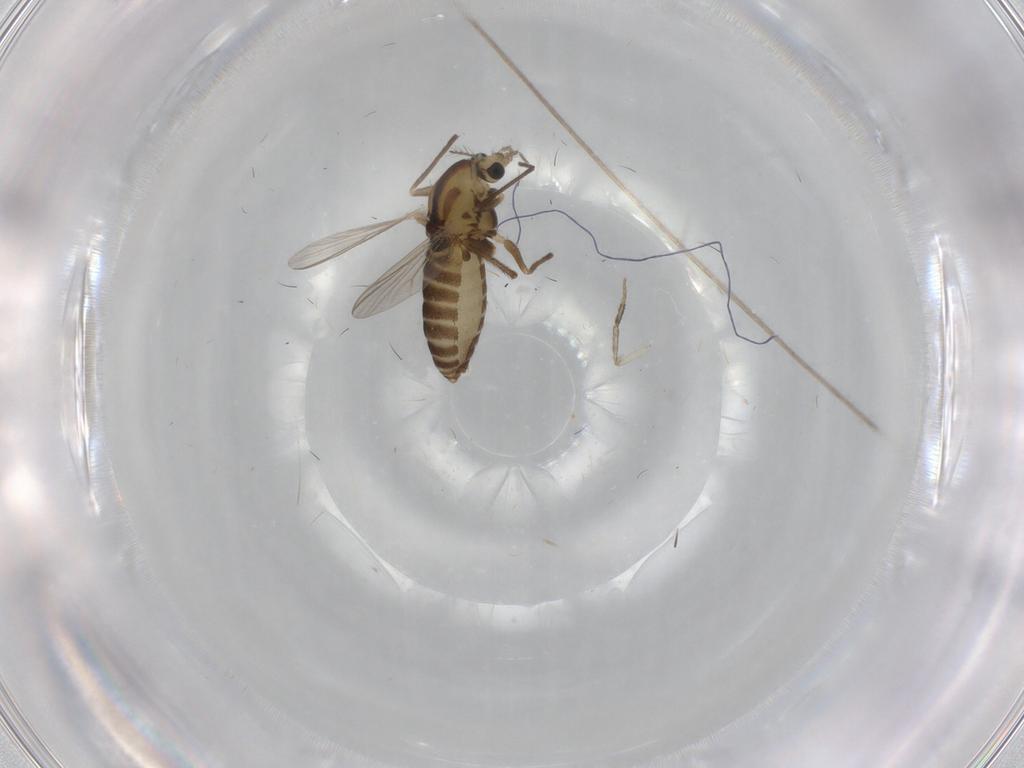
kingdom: Animalia
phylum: Arthropoda
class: Insecta
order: Diptera
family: Chironomidae
